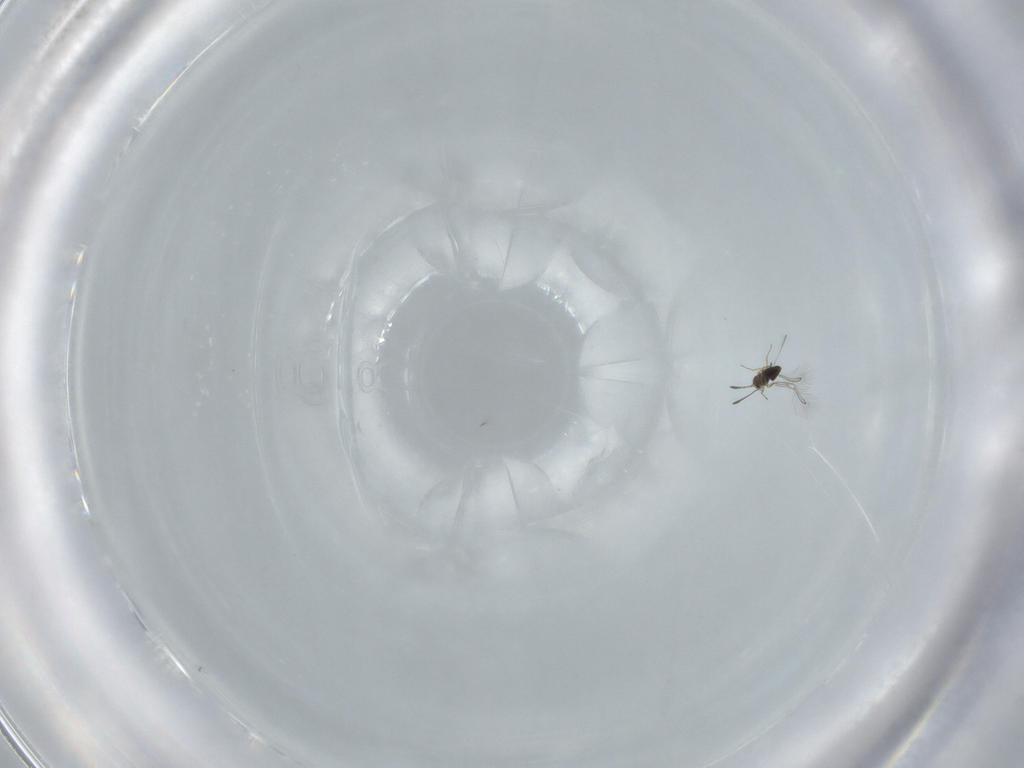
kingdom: Animalia
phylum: Arthropoda
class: Insecta
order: Hymenoptera
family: Mymaridae
